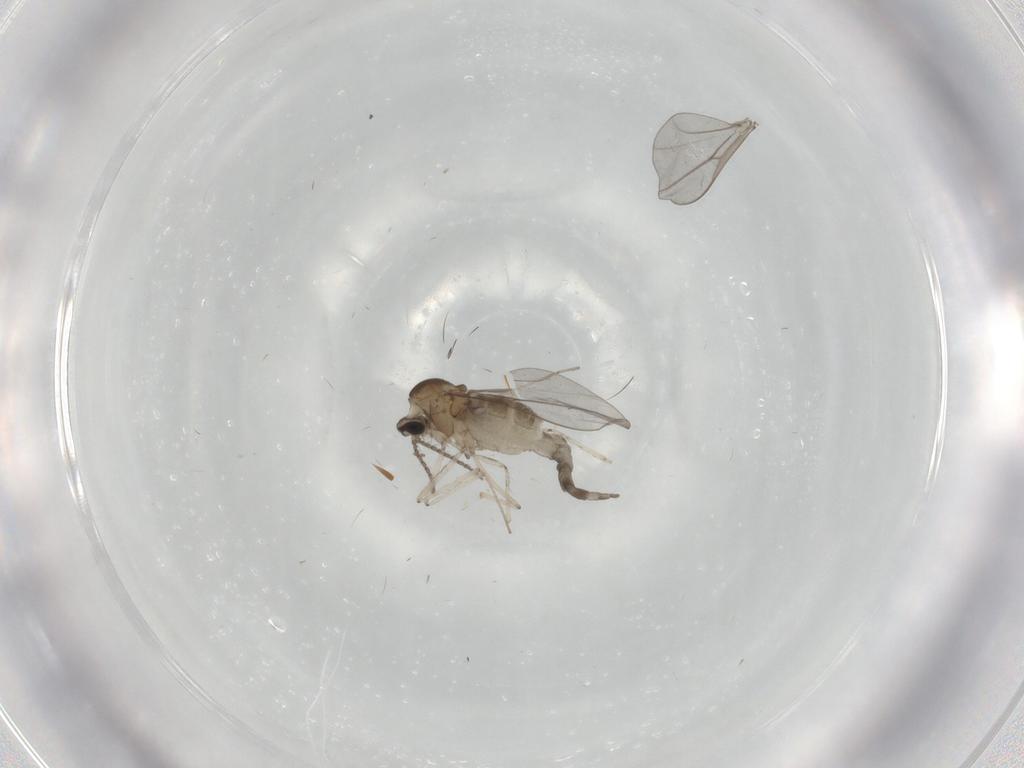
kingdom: Animalia
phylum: Arthropoda
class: Insecta
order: Diptera
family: Cecidomyiidae
